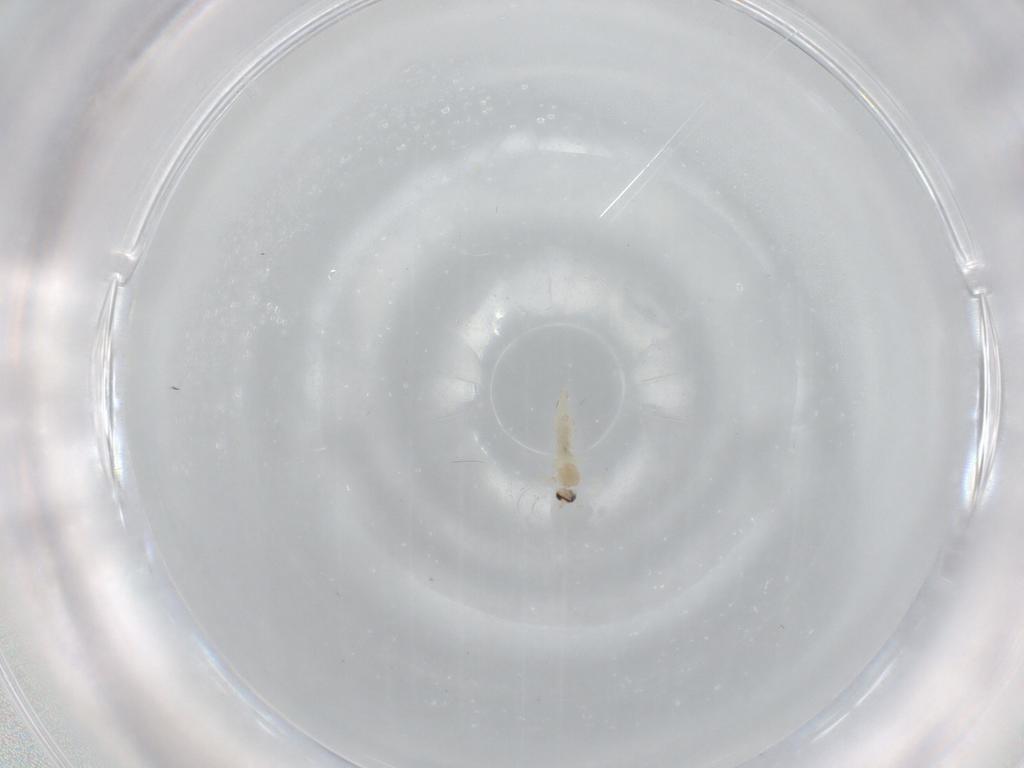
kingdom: Animalia
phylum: Arthropoda
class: Insecta
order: Diptera
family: Cecidomyiidae
